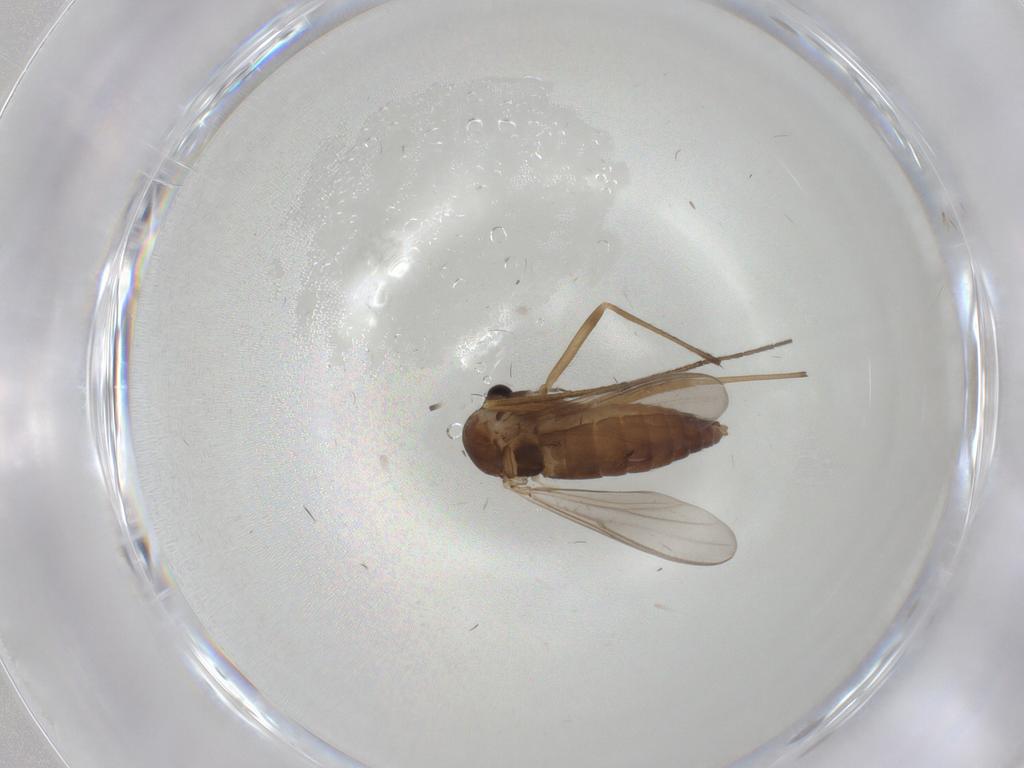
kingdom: Animalia
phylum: Arthropoda
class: Insecta
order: Diptera
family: Chironomidae
